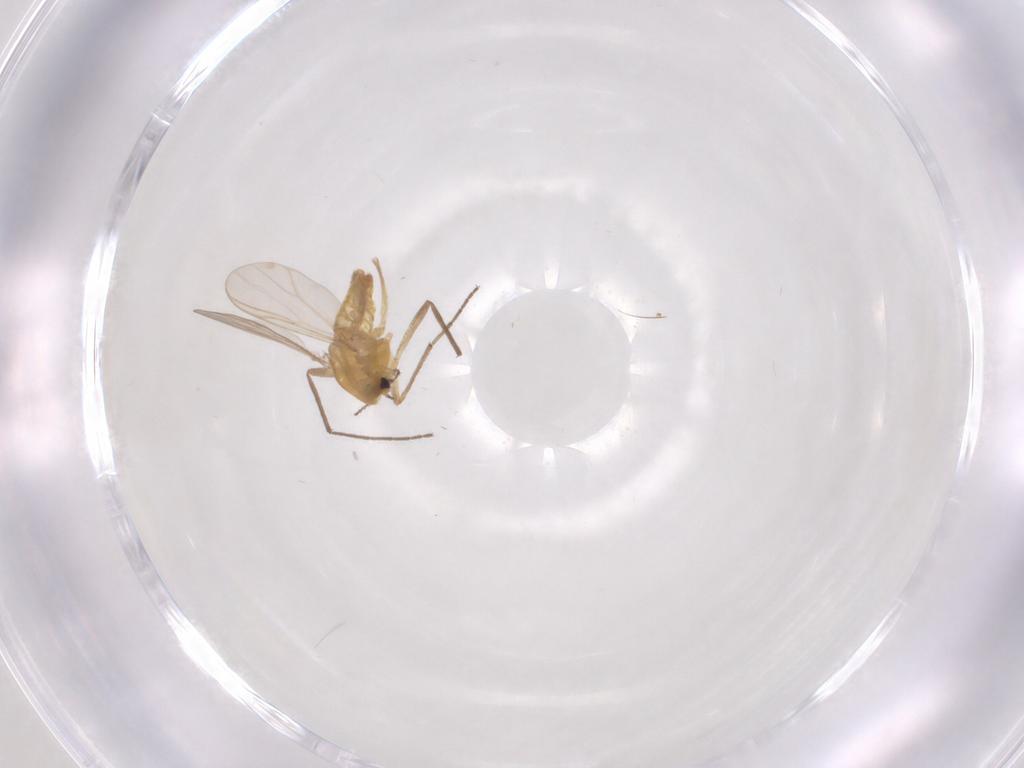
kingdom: Animalia
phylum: Arthropoda
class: Insecta
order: Diptera
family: Chironomidae
